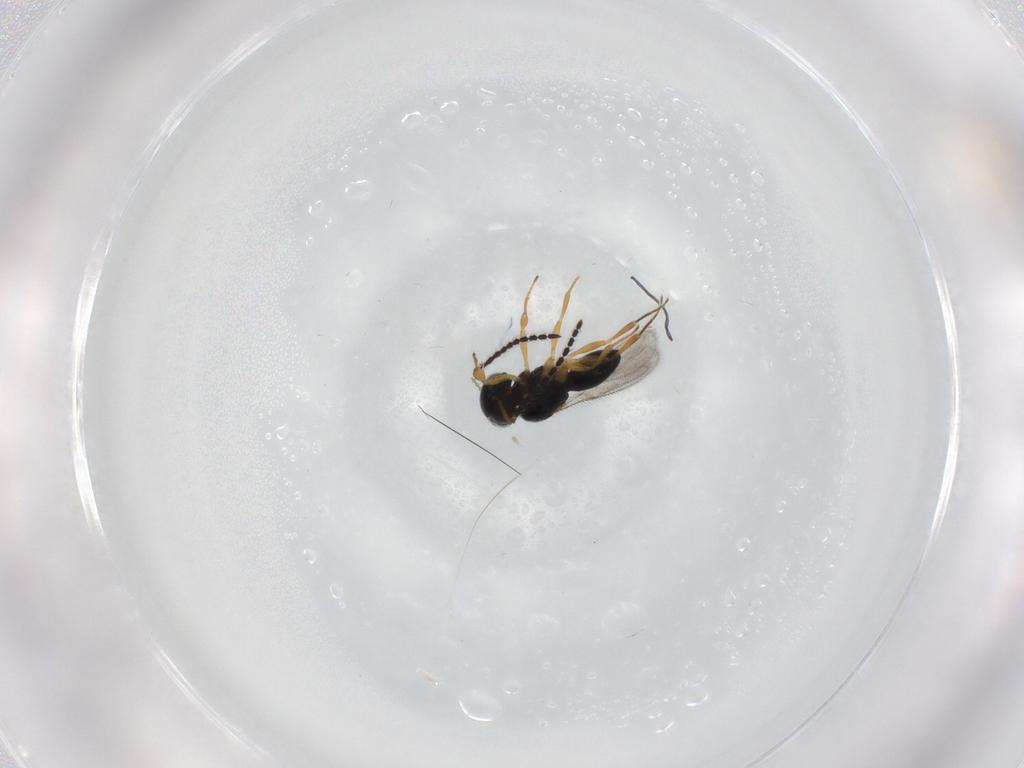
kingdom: Animalia
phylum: Arthropoda
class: Insecta
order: Hymenoptera
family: Scelionidae
